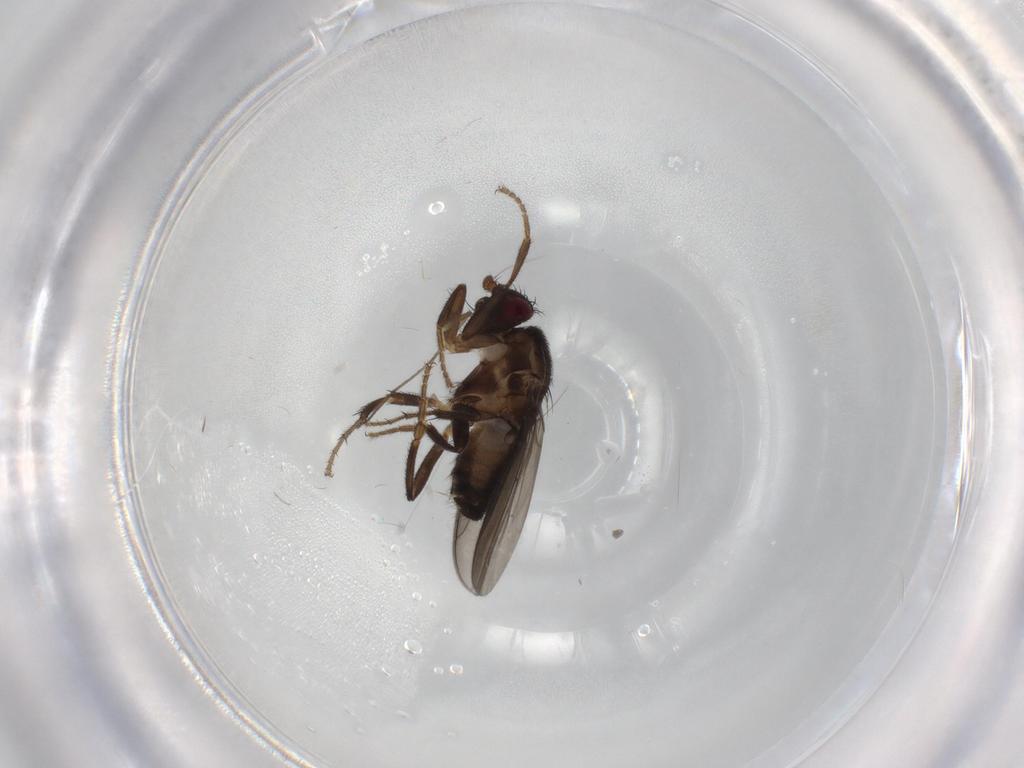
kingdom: Animalia
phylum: Arthropoda
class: Insecta
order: Diptera
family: Sphaeroceridae
